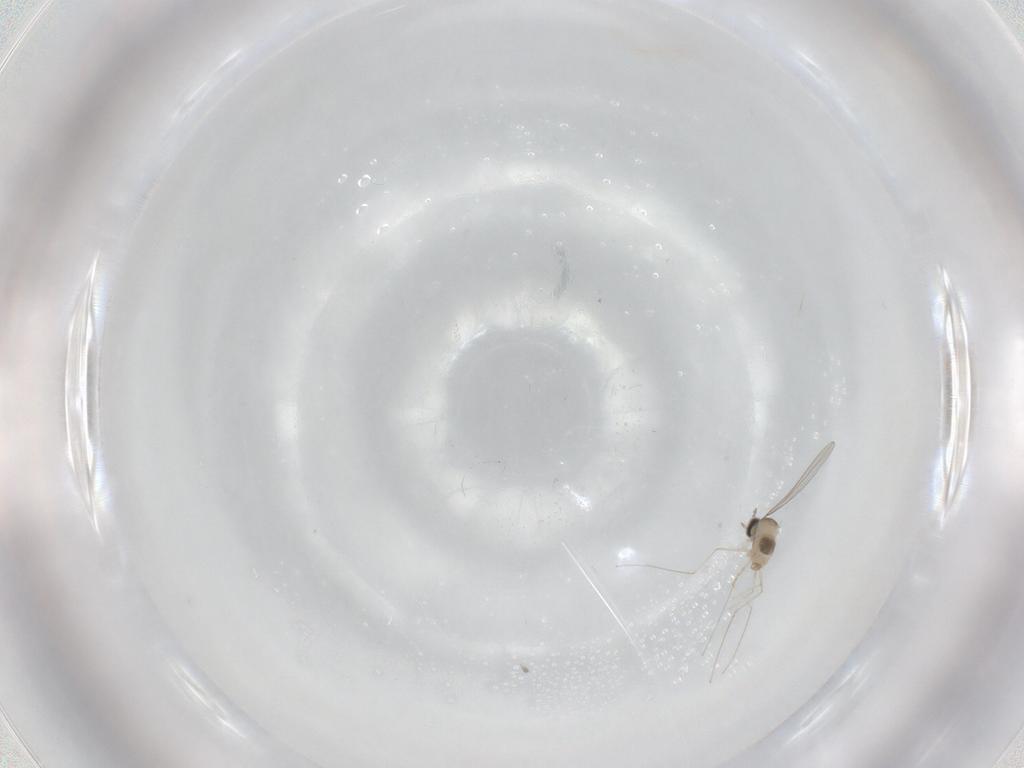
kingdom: Animalia
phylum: Arthropoda
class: Insecta
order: Diptera
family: Cecidomyiidae
